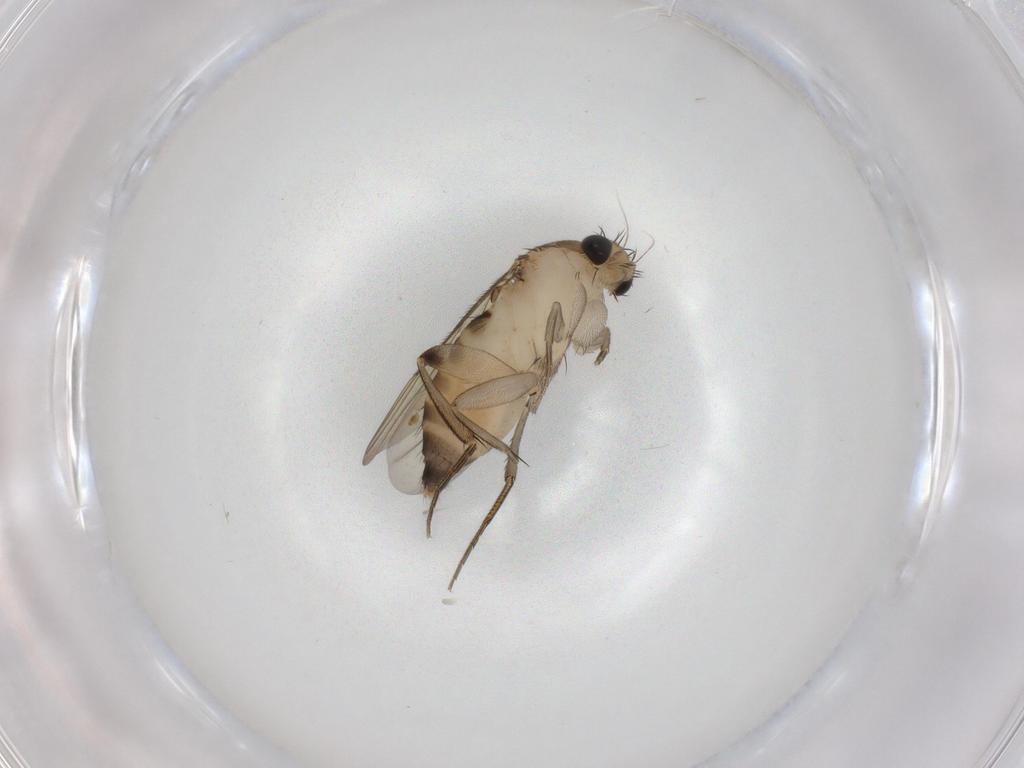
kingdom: Animalia
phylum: Arthropoda
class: Insecta
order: Diptera
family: Phoridae
